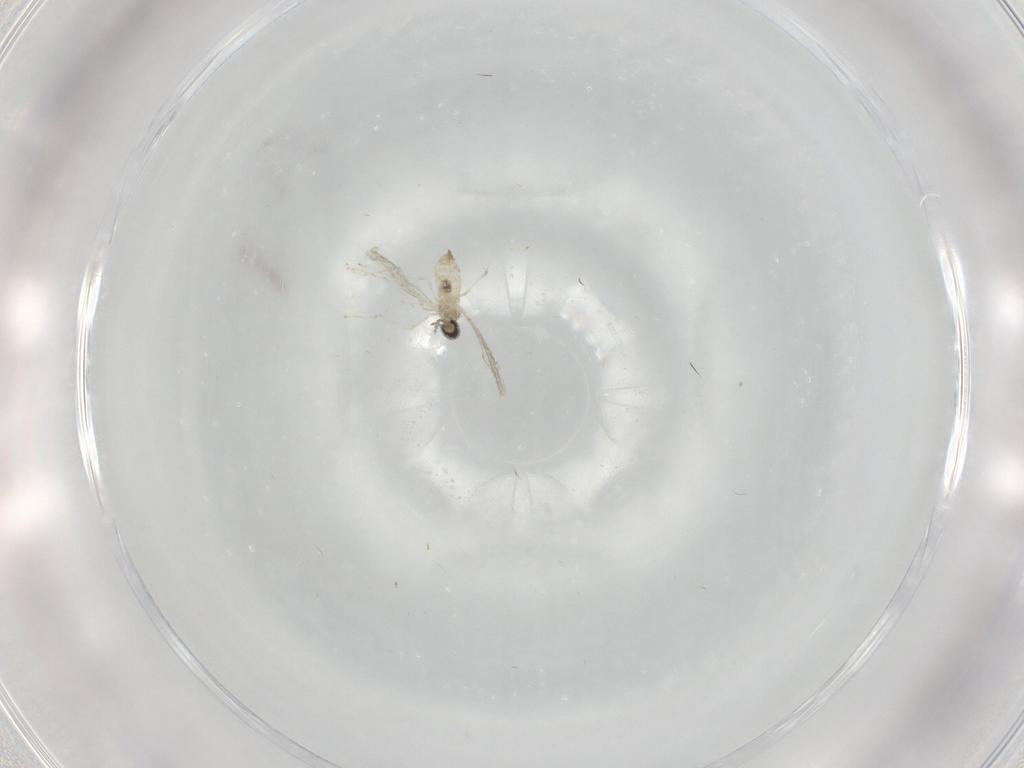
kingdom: Animalia
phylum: Arthropoda
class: Insecta
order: Diptera
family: Cecidomyiidae
